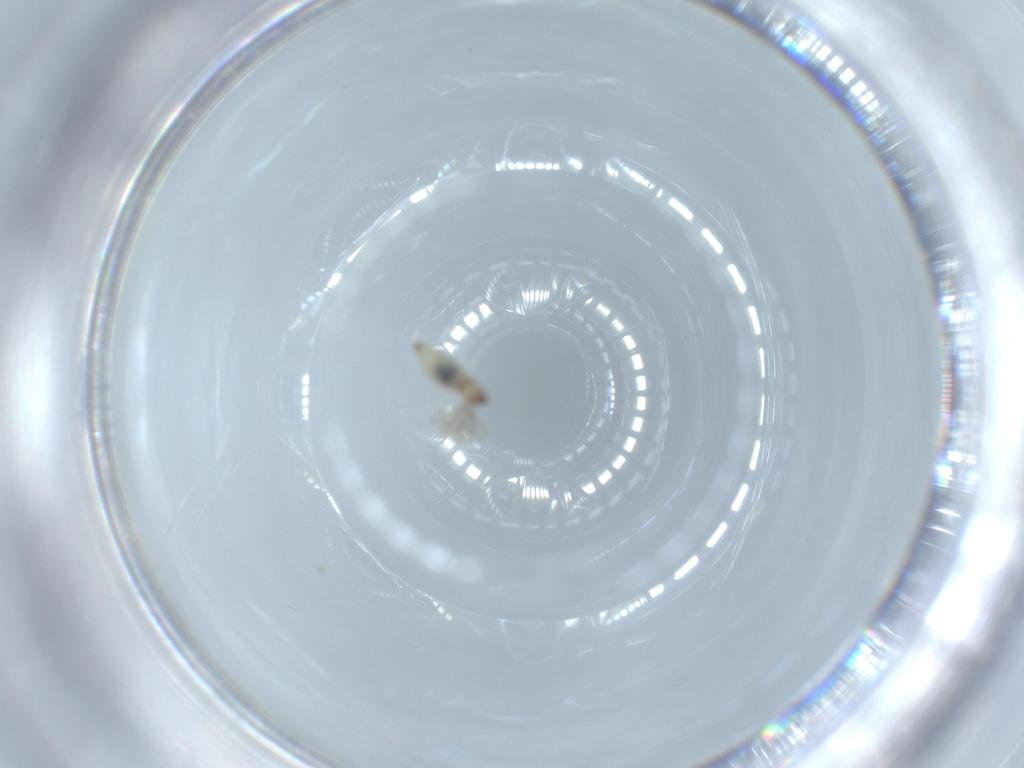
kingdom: Animalia
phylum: Arthropoda
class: Insecta
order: Diptera
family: Cecidomyiidae
